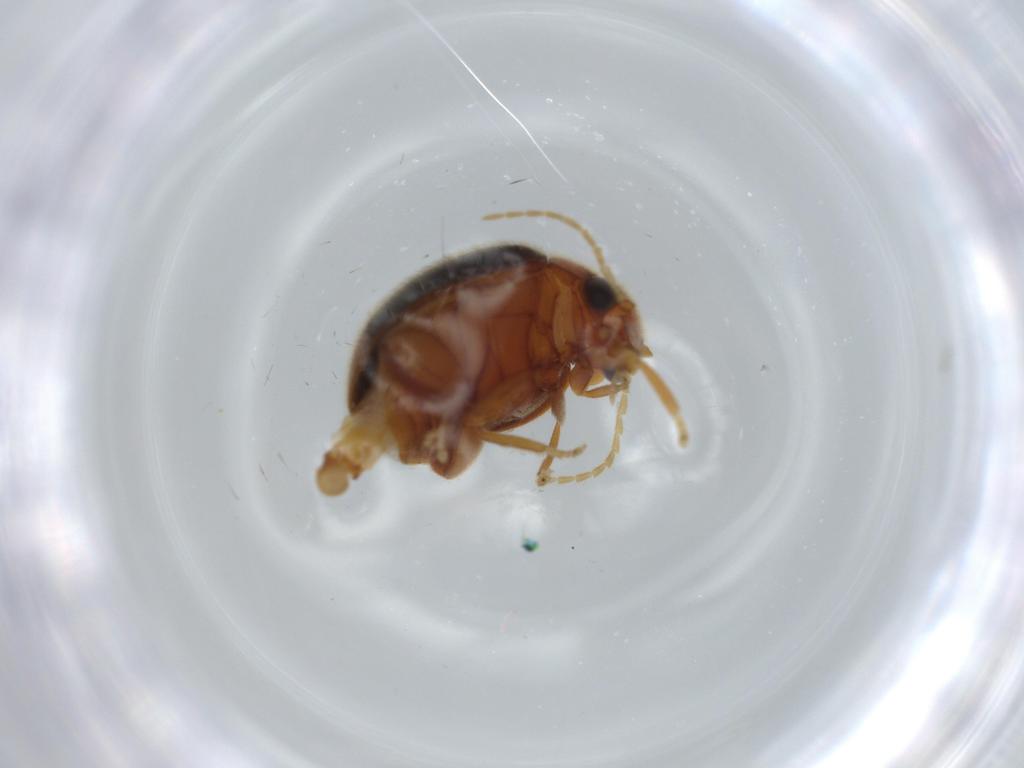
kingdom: Animalia
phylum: Arthropoda
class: Insecta
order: Coleoptera
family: Scirtidae
